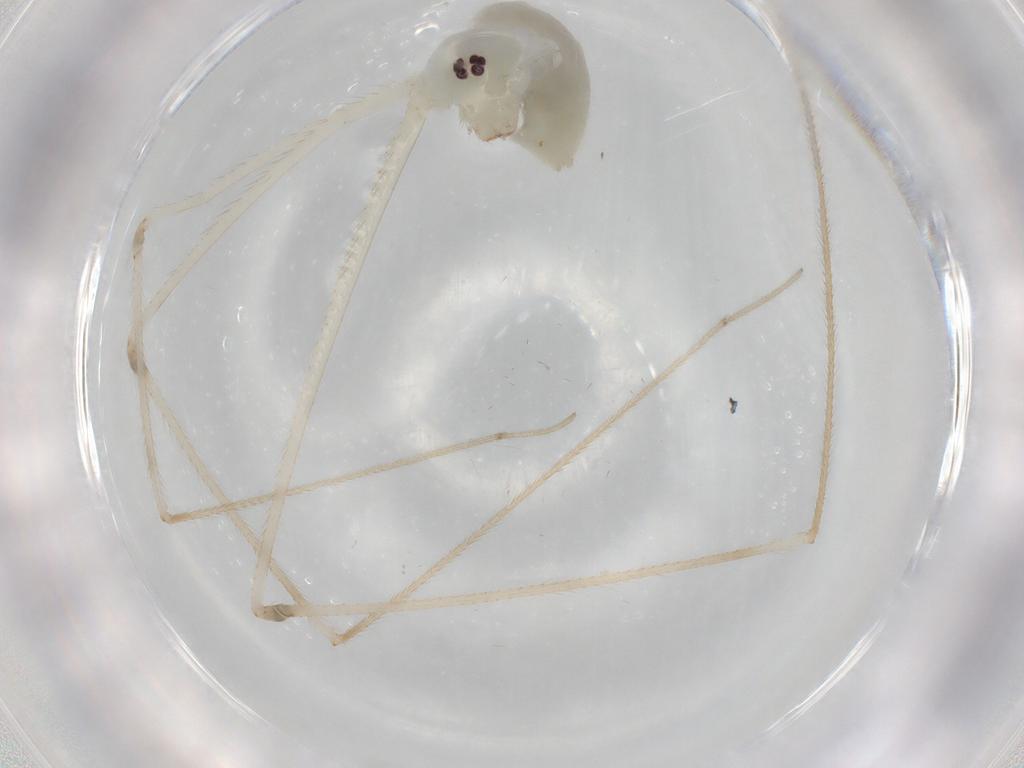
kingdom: Animalia
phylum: Arthropoda
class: Arachnida
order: Araneae
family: Pholcidae
